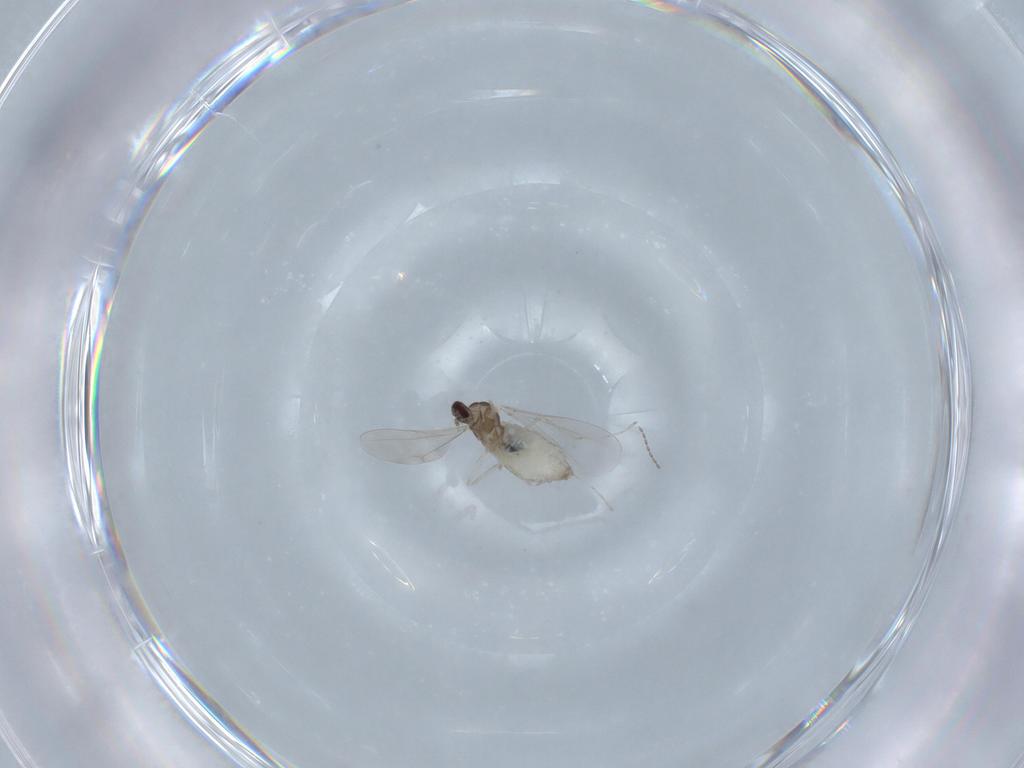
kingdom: Animalia
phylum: Arthropoda
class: Insecta
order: Diptera
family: Cecidomyiidae
